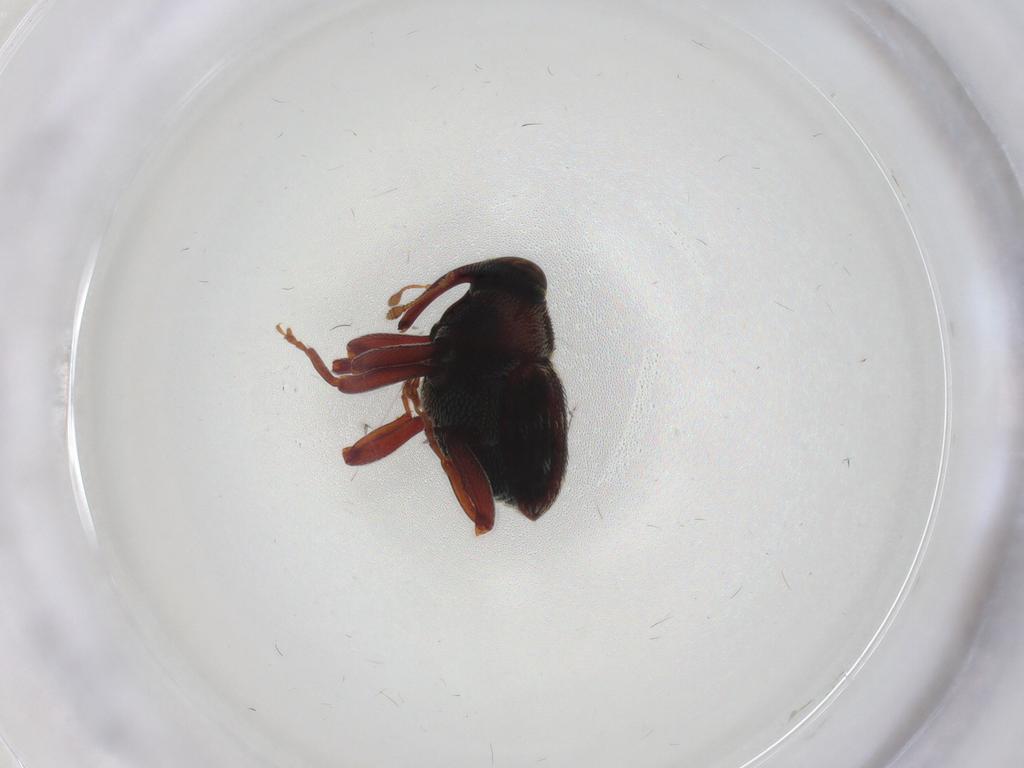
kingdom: Animalia
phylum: Arthropoda
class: Insecta
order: Coleoptera
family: Curculionidae
